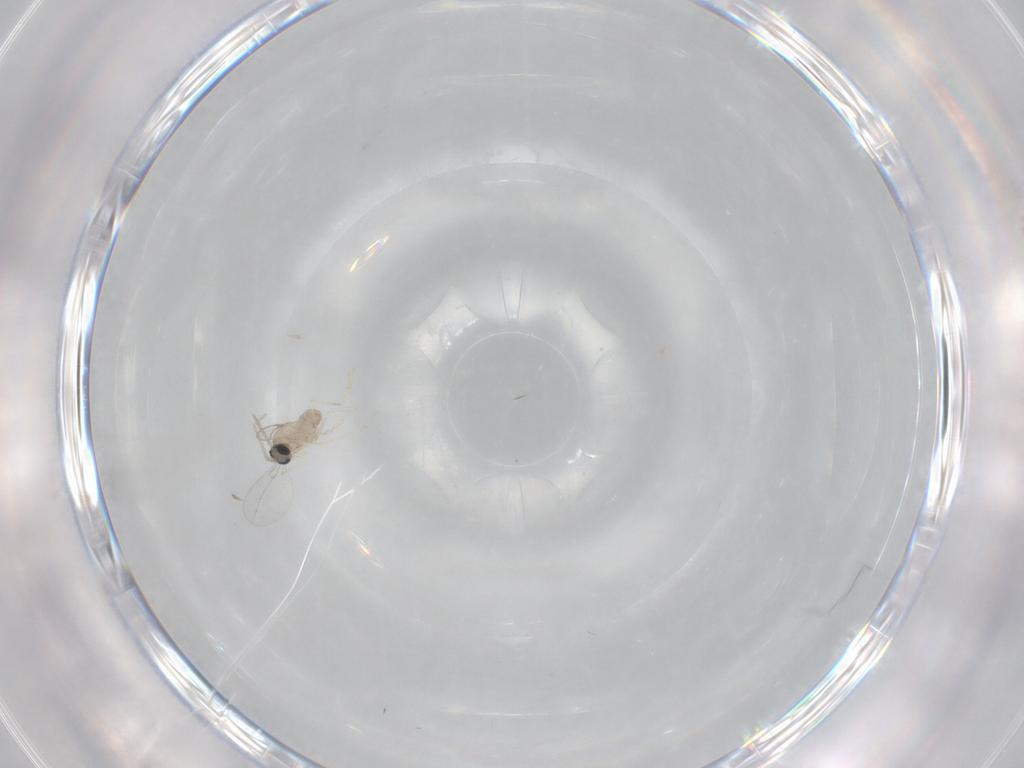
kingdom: Animalia
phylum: Arthropoda
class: Insecta
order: Diptera
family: Cecidomyiidae
